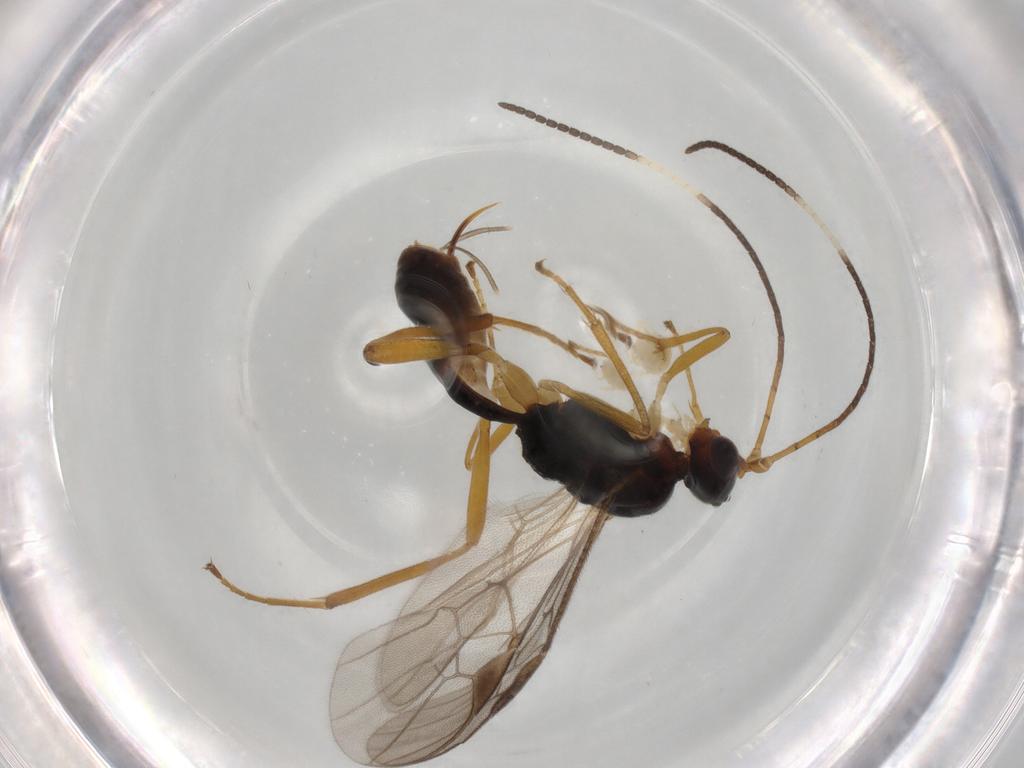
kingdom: Animalia
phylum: Arthropoda
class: Insecta
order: Hymenoptera
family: Braconidae
